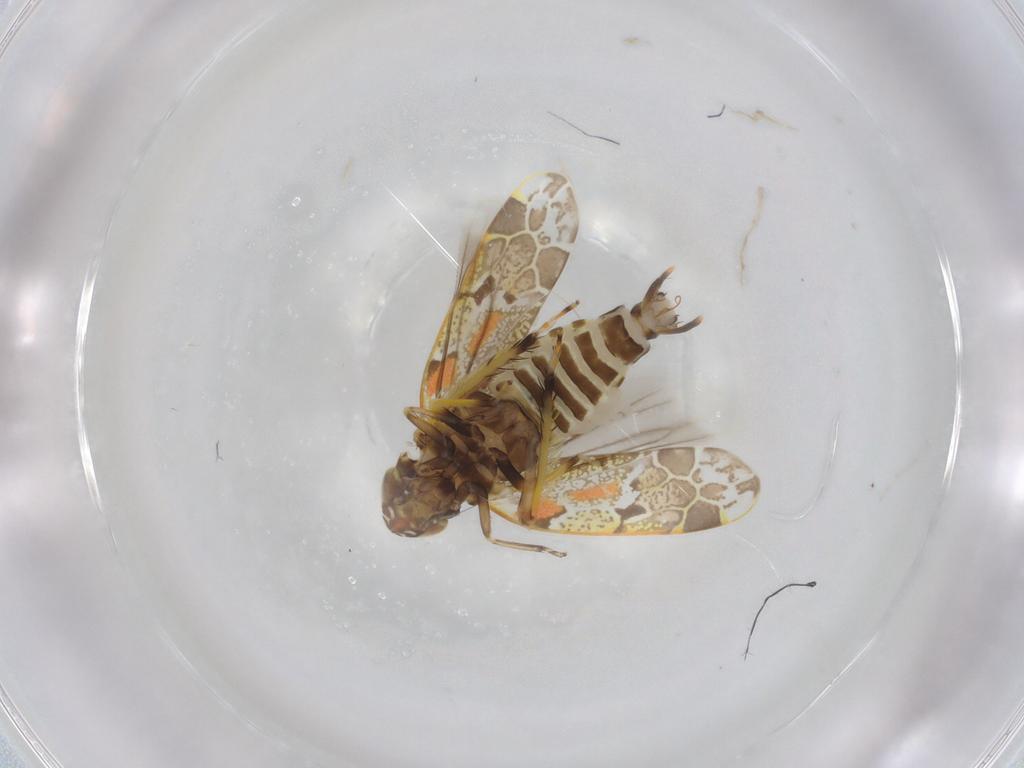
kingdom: Animalia
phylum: Arthropoda
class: Insecta
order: Hemiptera
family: Cicadellidae
